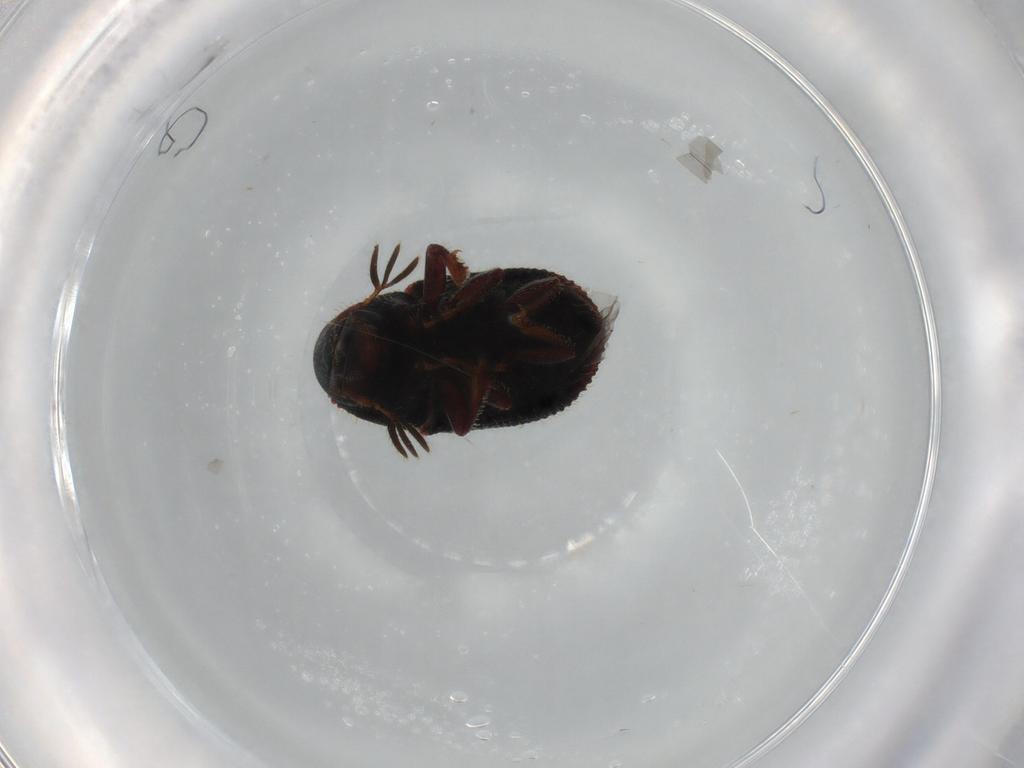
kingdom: Animalia
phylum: Arthropoda
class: Insecta
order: Coleoptera
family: Curculionidae
